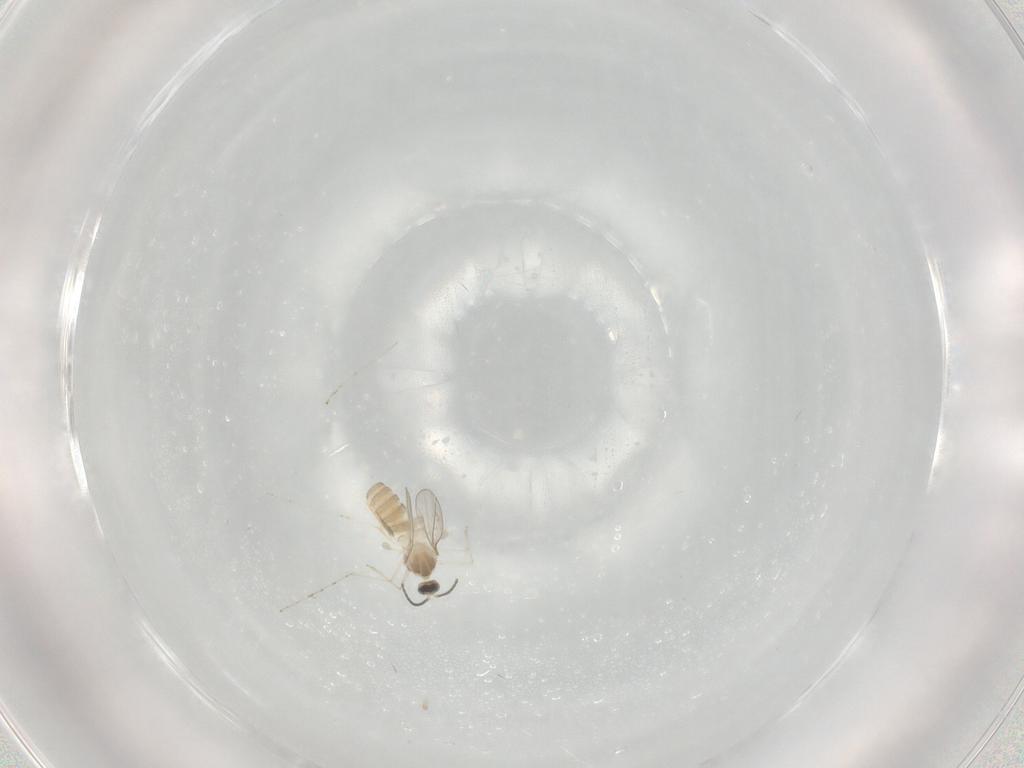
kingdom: Animalia
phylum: Arthropoda
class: Insecta
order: Diptera
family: Cecidomyiidae
